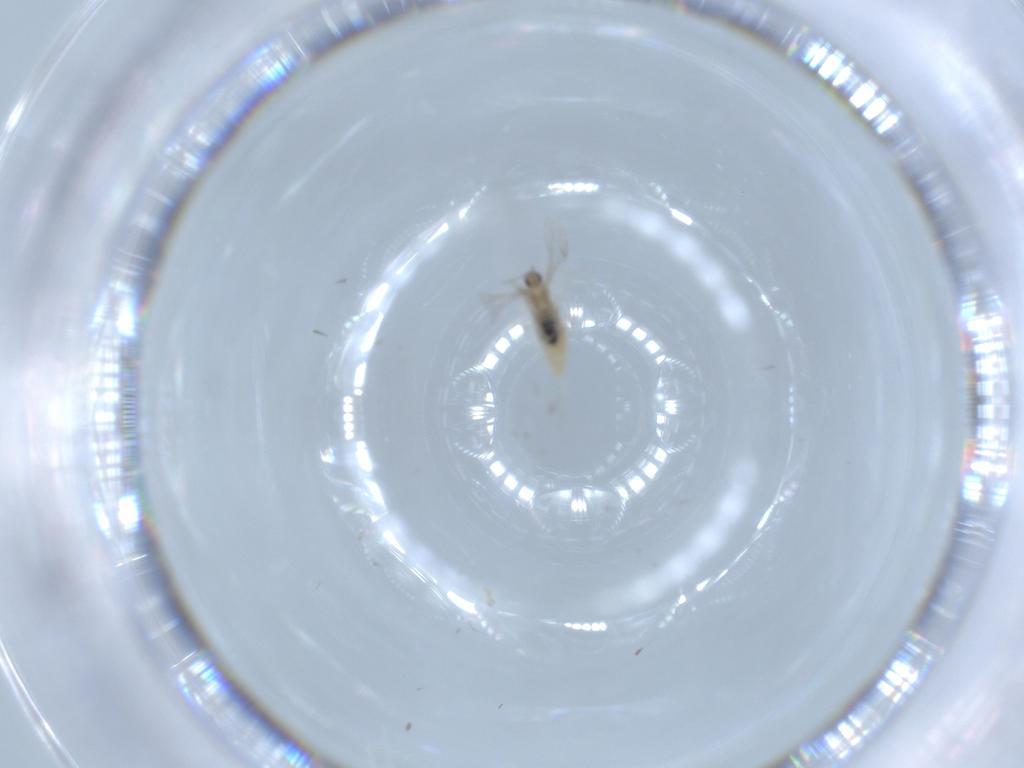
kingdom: Animalia
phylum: Arthropoda
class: Insecta
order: Diptera
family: Cecidomyiidae
